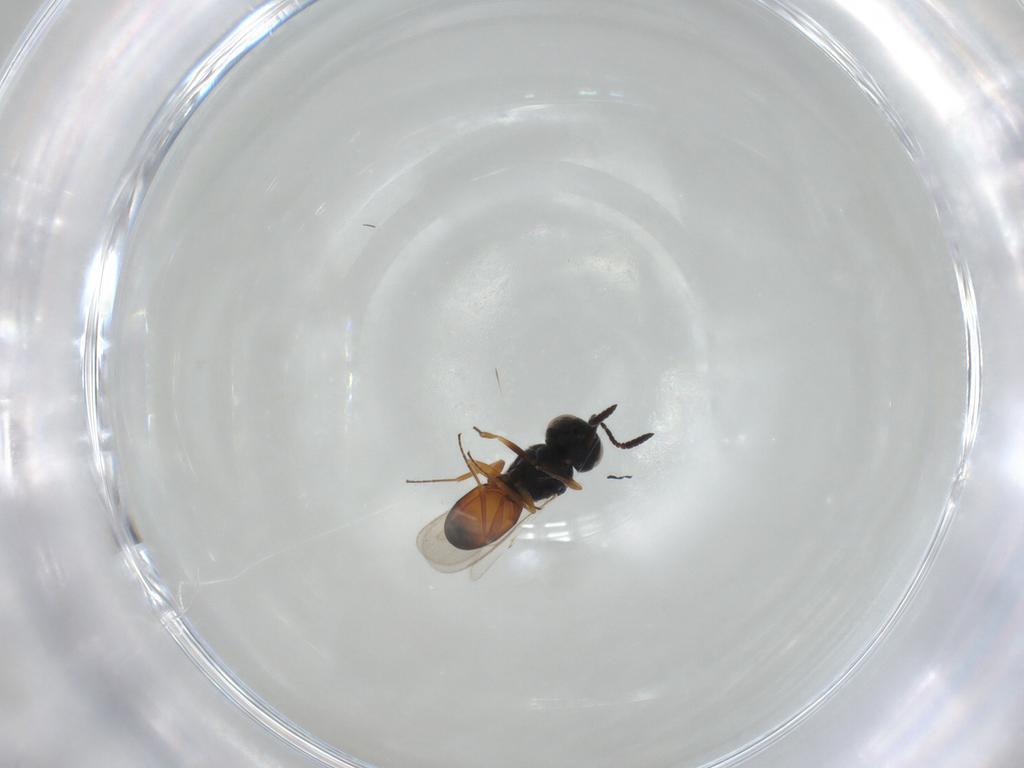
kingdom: Animalia
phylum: Arthropoda
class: Insecta
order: Hymenoptera
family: Scelionidae
